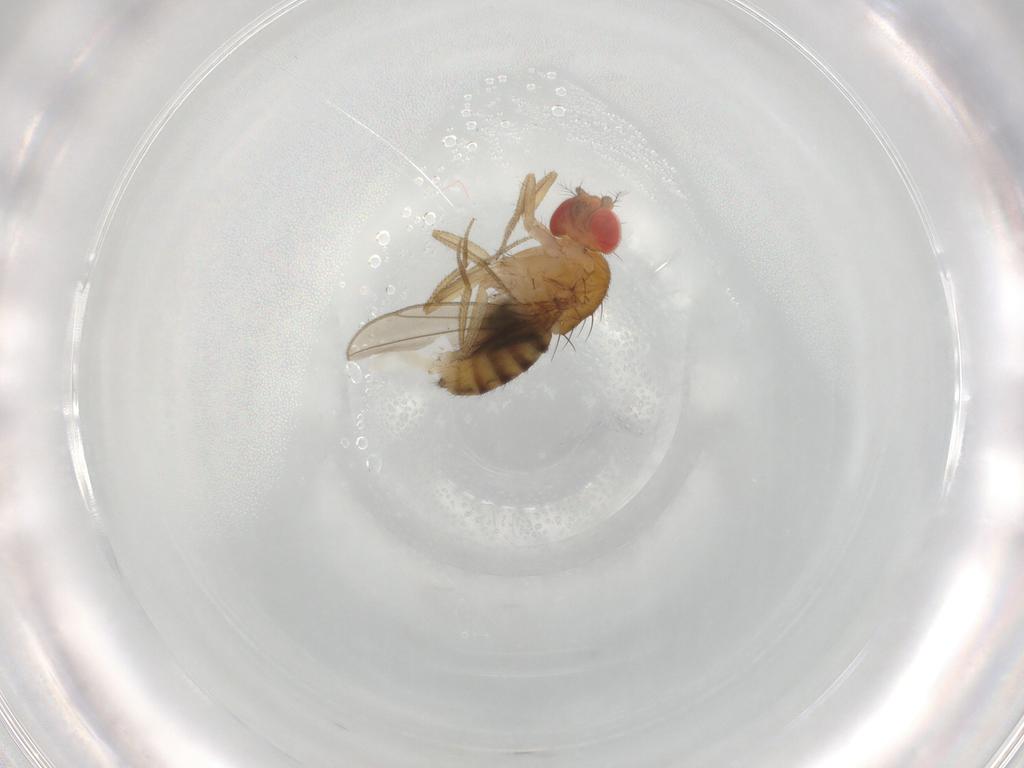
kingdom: Animalia
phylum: Arthropoda
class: Insecta
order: Diptera
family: Drosophilidae
